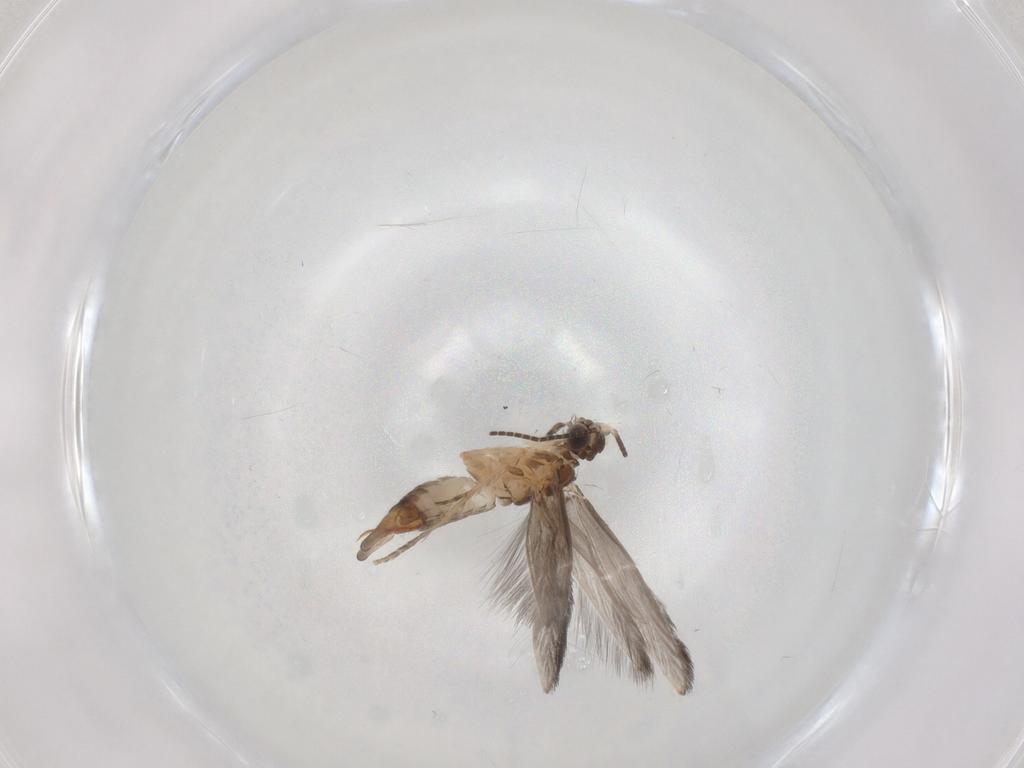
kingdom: Animalia
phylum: Arthropoda
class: Insecta
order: Trichoptera
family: Hydroptilidae
